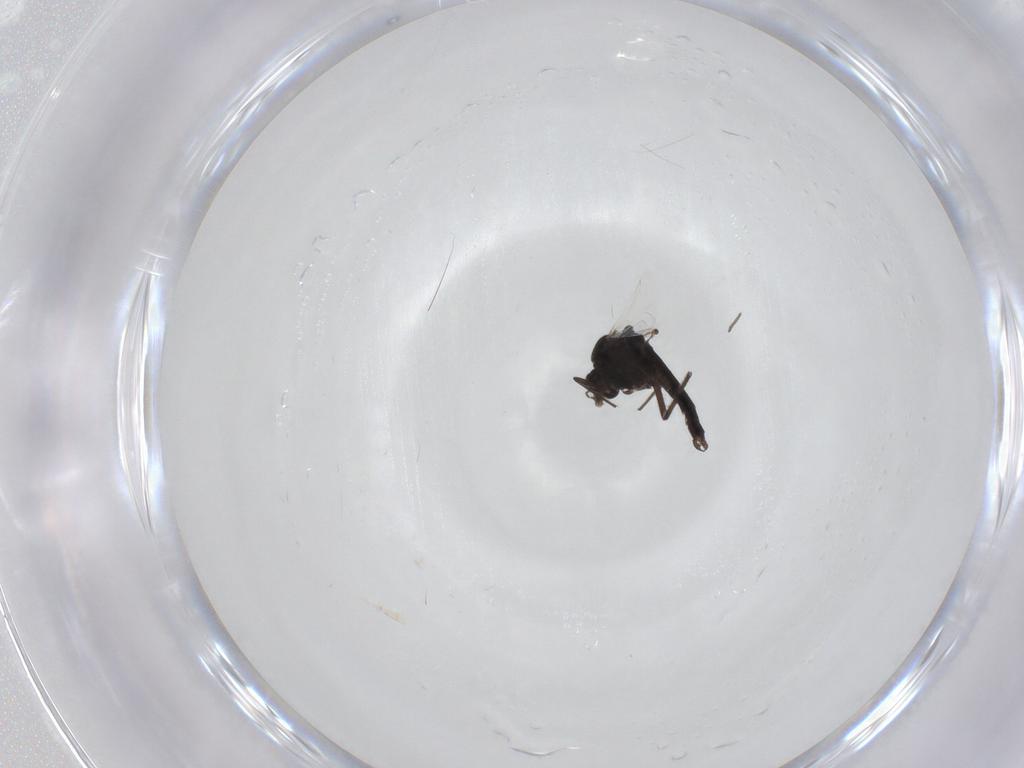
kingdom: Animalia
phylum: Arthropoda
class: Insecta
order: Diptera
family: Chironomidae
